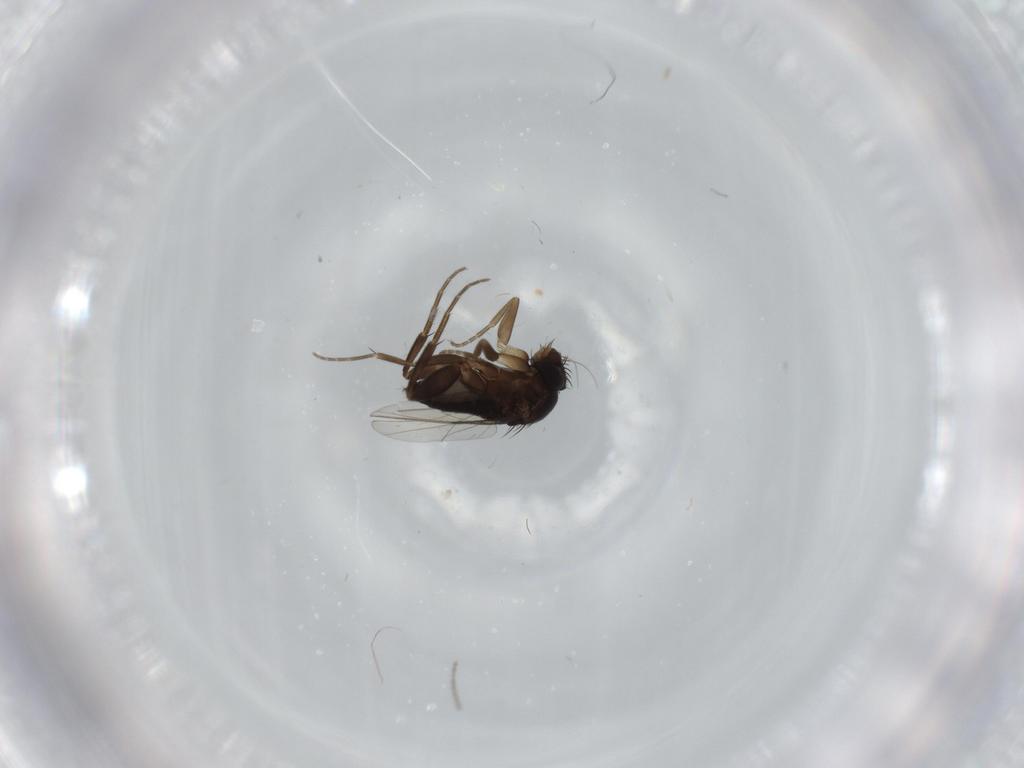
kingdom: Animalia
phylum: Arthropoda
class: Insecta
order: Diptera
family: Phoridae
